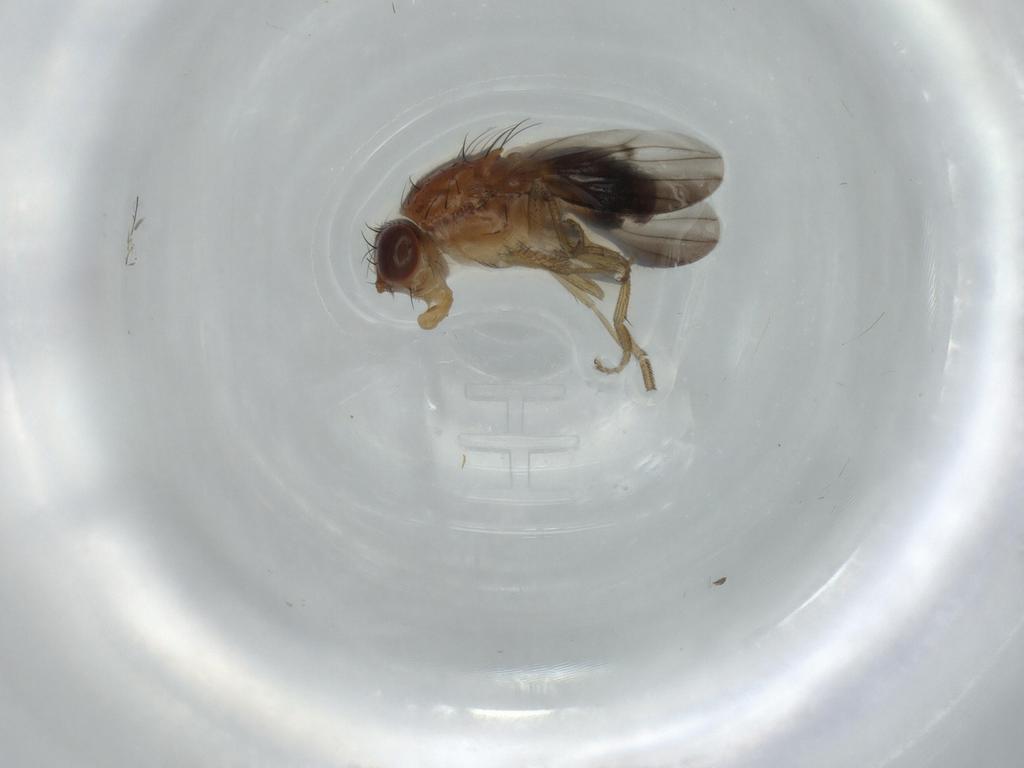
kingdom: Animalia
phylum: Arthropoda
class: Insecta
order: Diptera
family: Heleomyzidae
